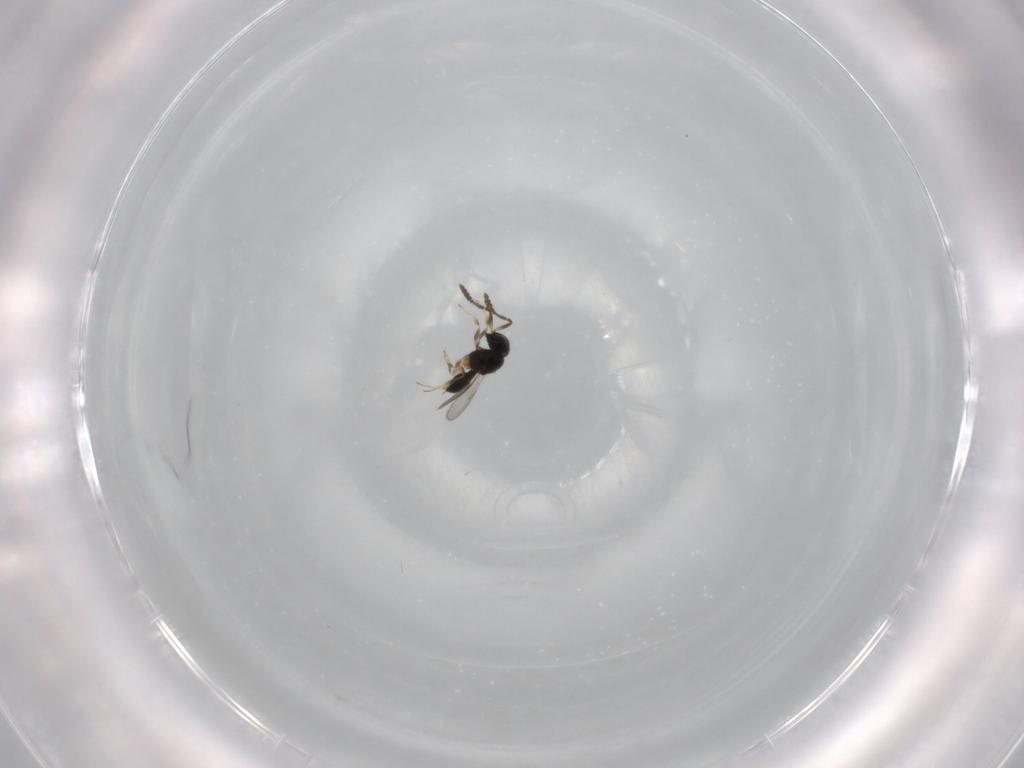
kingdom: Animalia
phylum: Arthropoda
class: Insecta
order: Hymenoptera
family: Scelionidae
